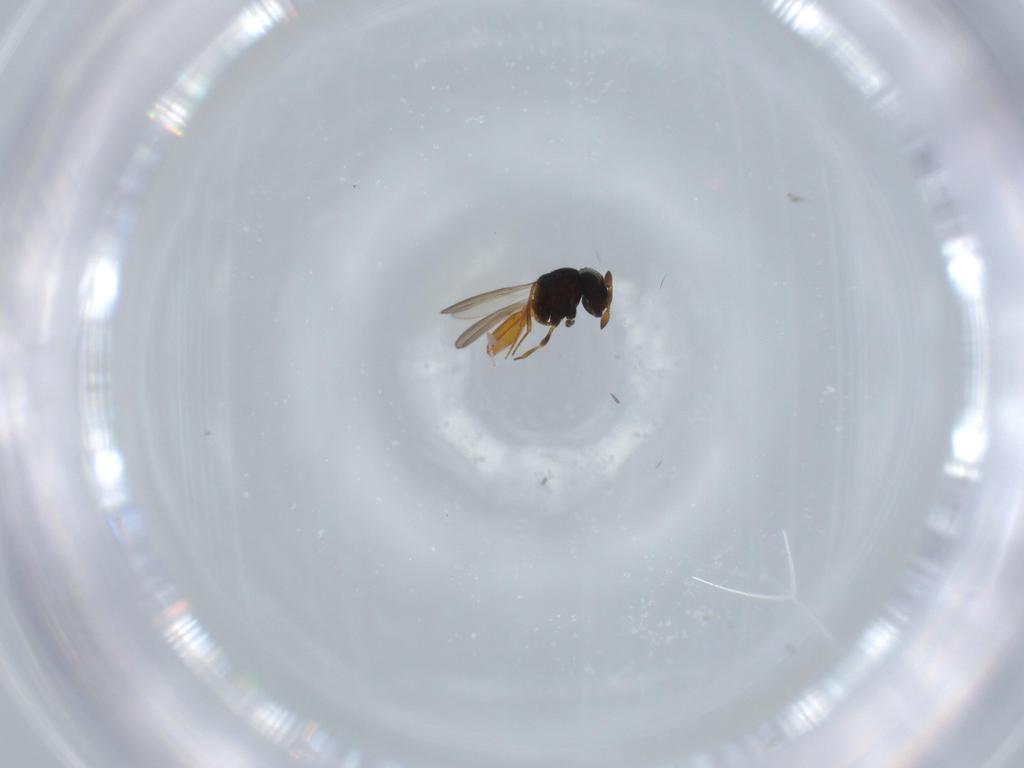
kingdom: Animalia
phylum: Arthropoda
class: Insecta
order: Hymenoptera
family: Scelionidae
